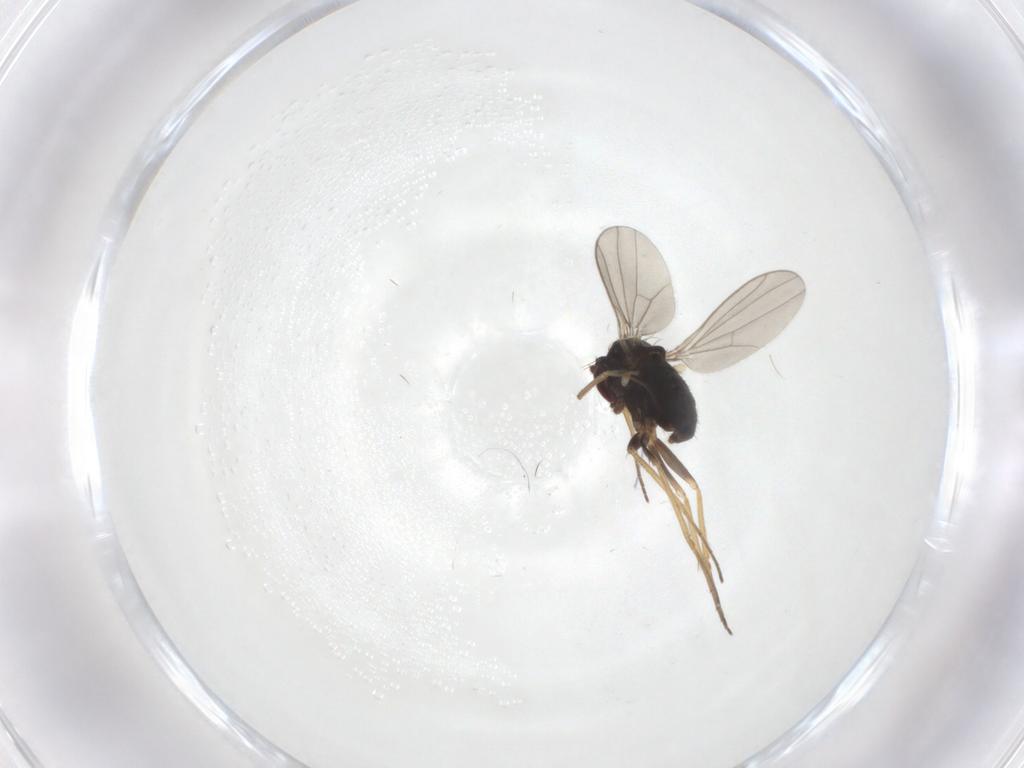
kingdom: Animalia
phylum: Arthropoda
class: Insecta
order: Diptera
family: Dolichopodidae
